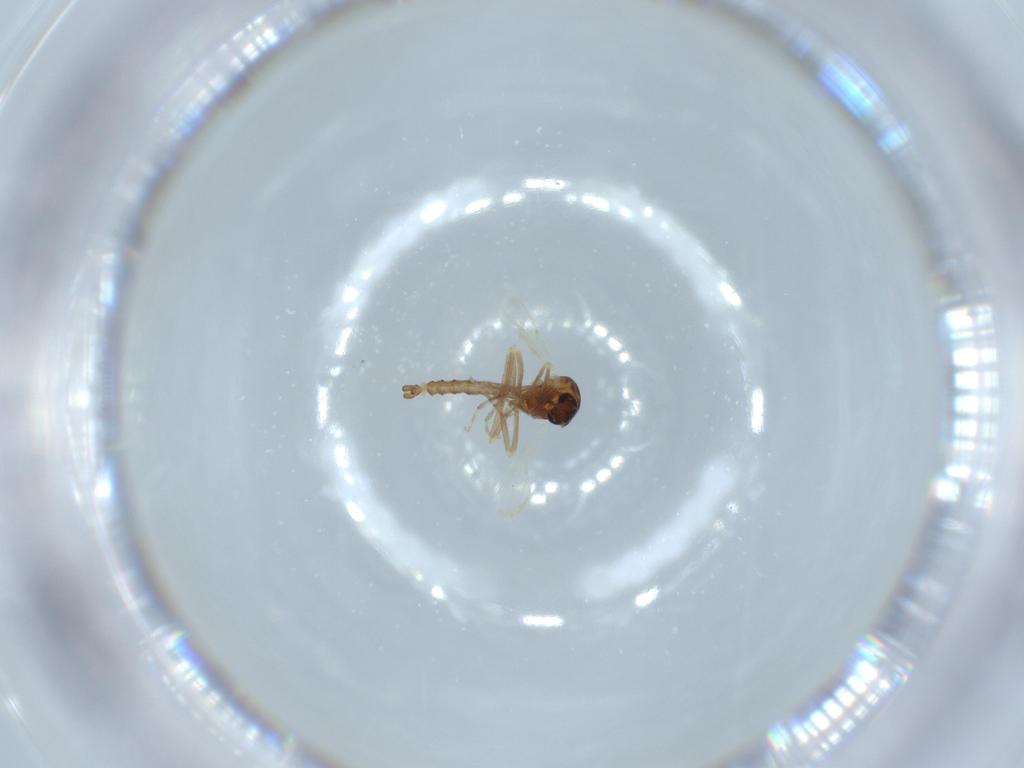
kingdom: Animalia
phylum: Arthropoda
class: Insecta
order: Diptera
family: Ceratopogonidae
